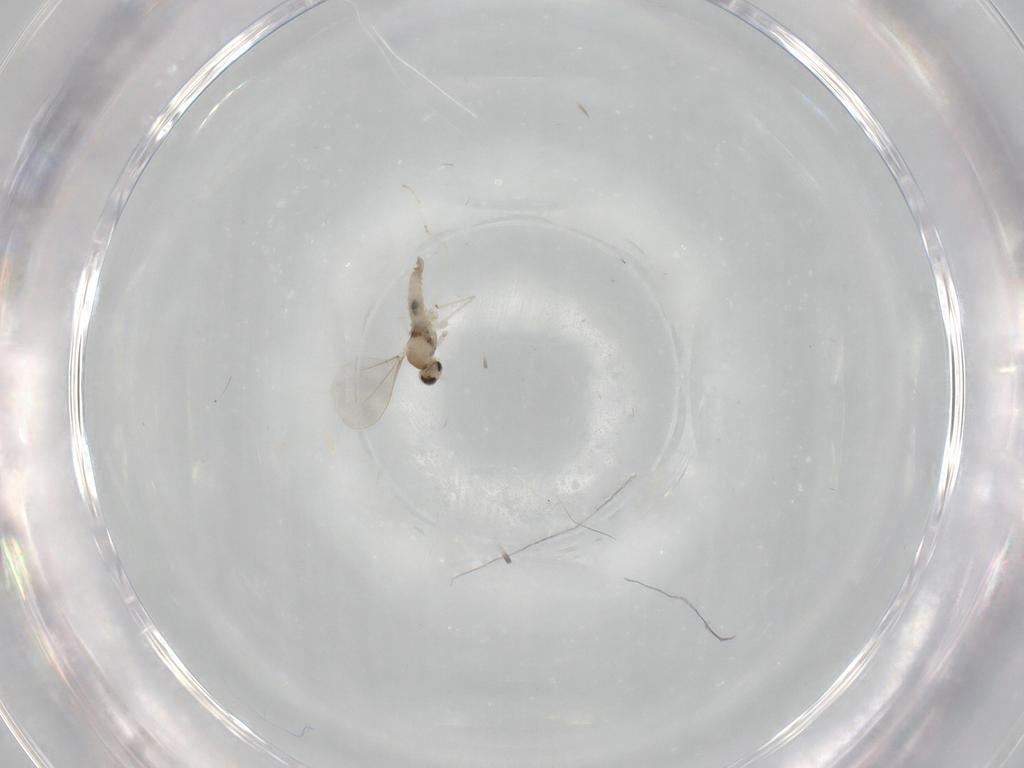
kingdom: Animalia
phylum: Arthropoda
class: Insecta
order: Diptera
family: Cecidomyiidae
